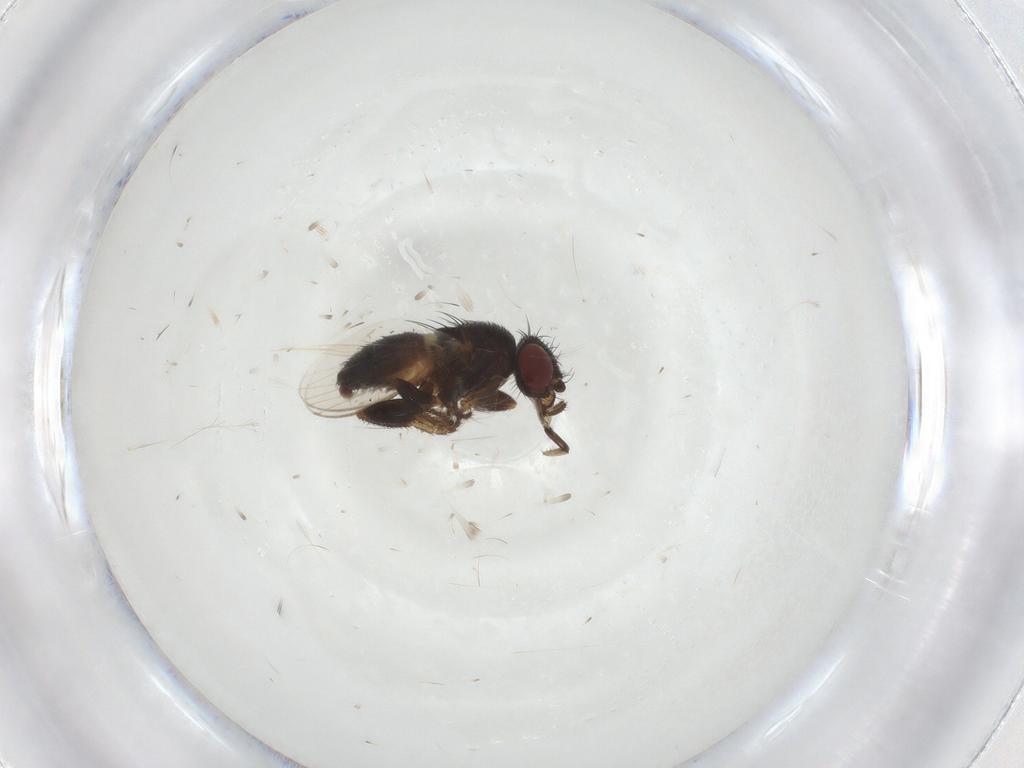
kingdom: Animalia
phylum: Arthropoda
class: Insecta
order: Diptera
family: Milichiidae
